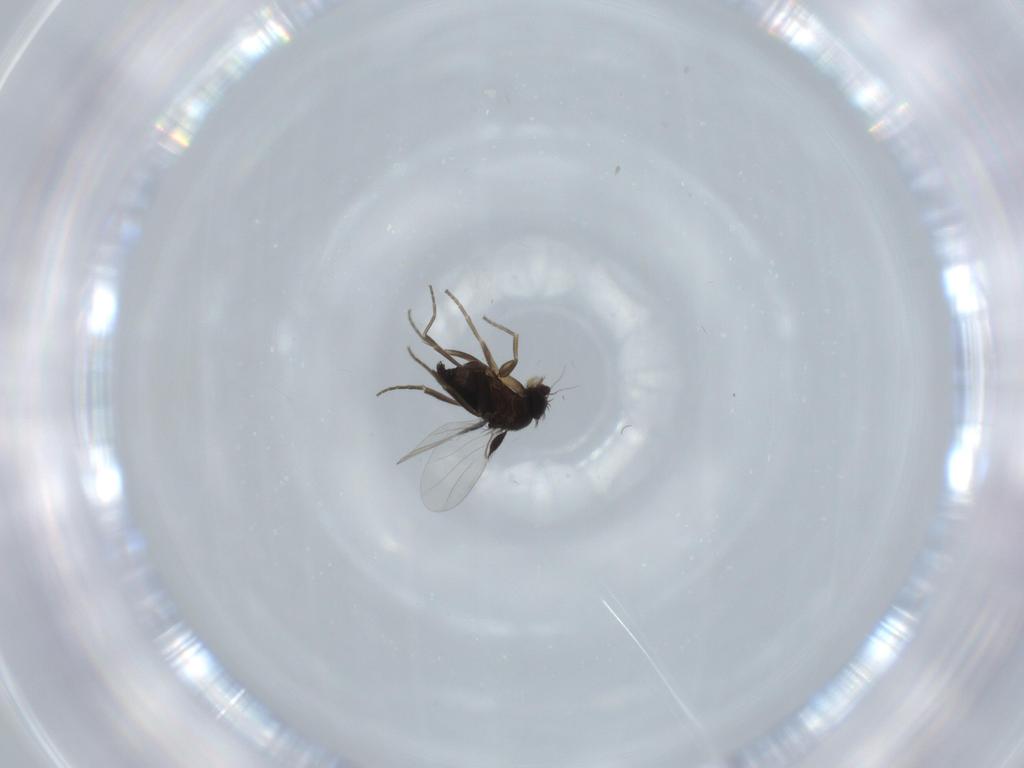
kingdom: Animalia
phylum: Arthropoda
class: Insecta
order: Diptera
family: Phoridae
